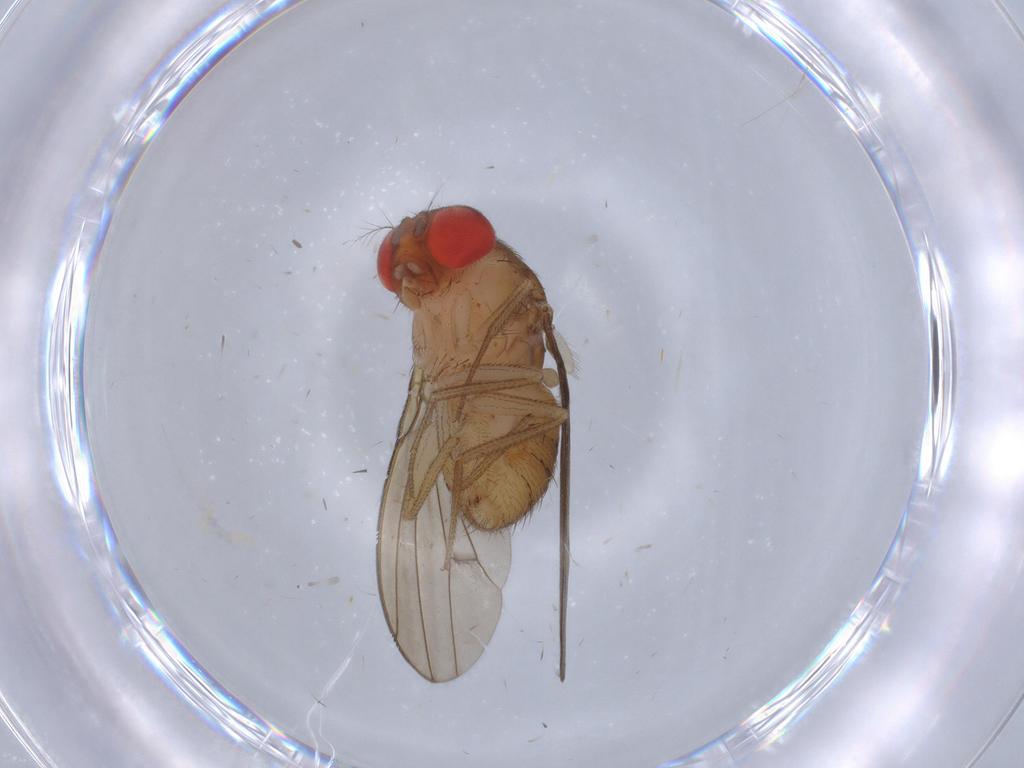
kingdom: Animalia
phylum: Arthropoda
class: Insecta
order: Diptera
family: Drosophilidae
